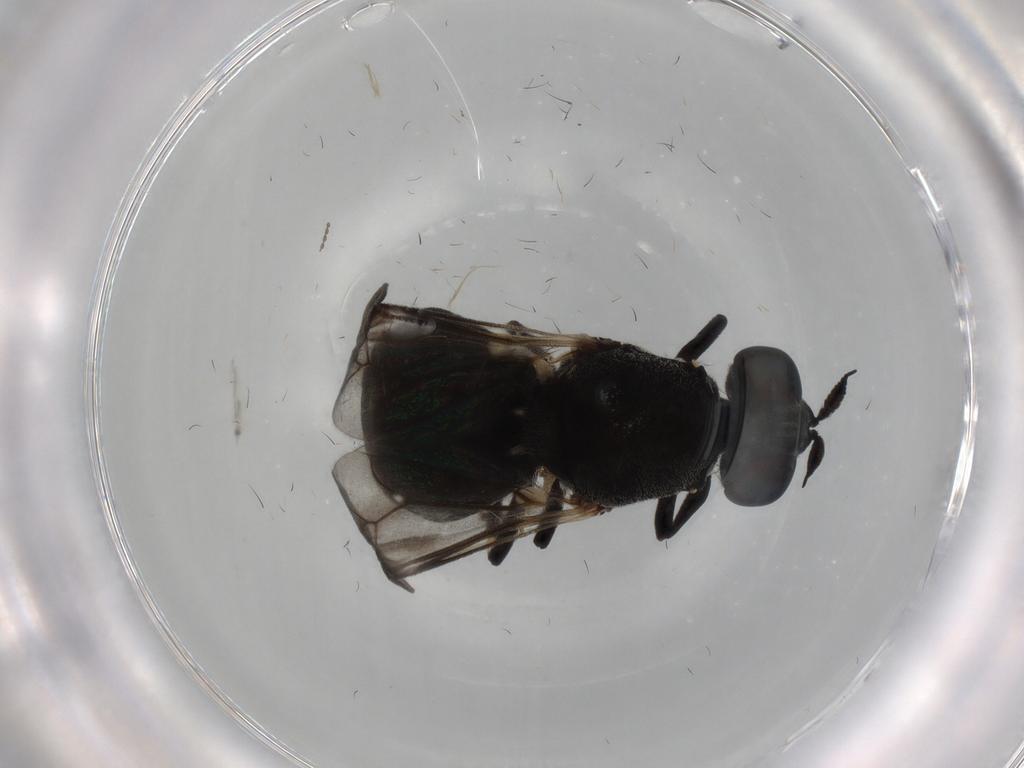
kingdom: Animalia
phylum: Arthropoda
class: Insecta
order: Diptera
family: Stratiomyidae
